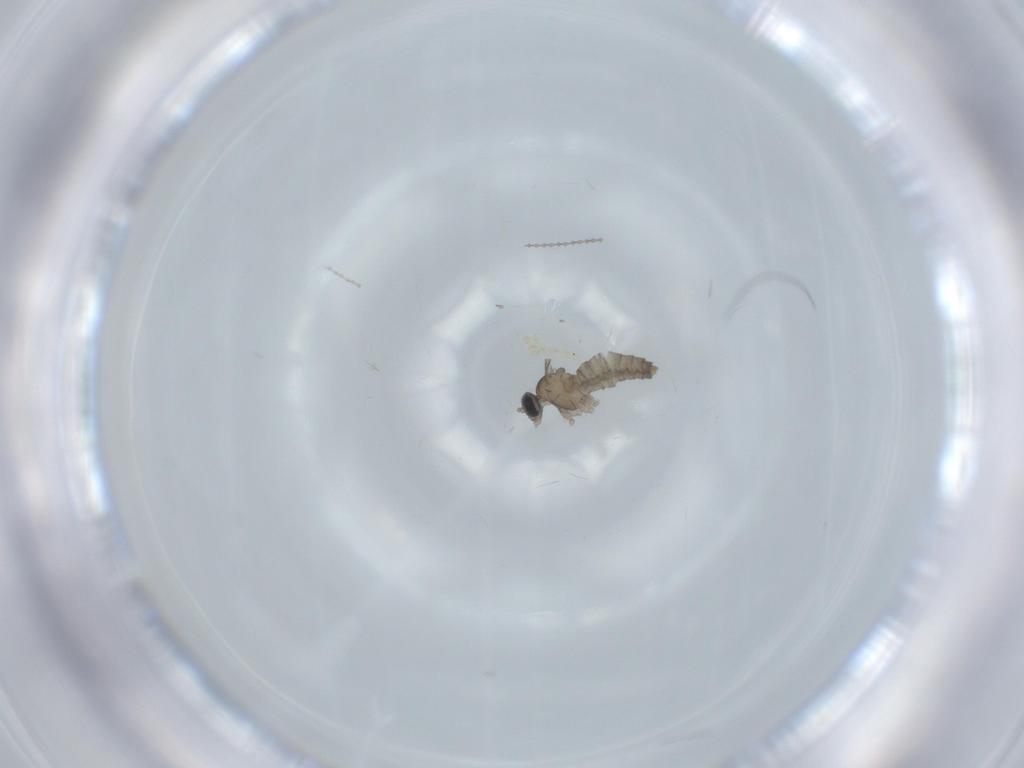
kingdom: Animalia
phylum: Arthropoda
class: Insecta
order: Diptera
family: Cecidomyiidae
